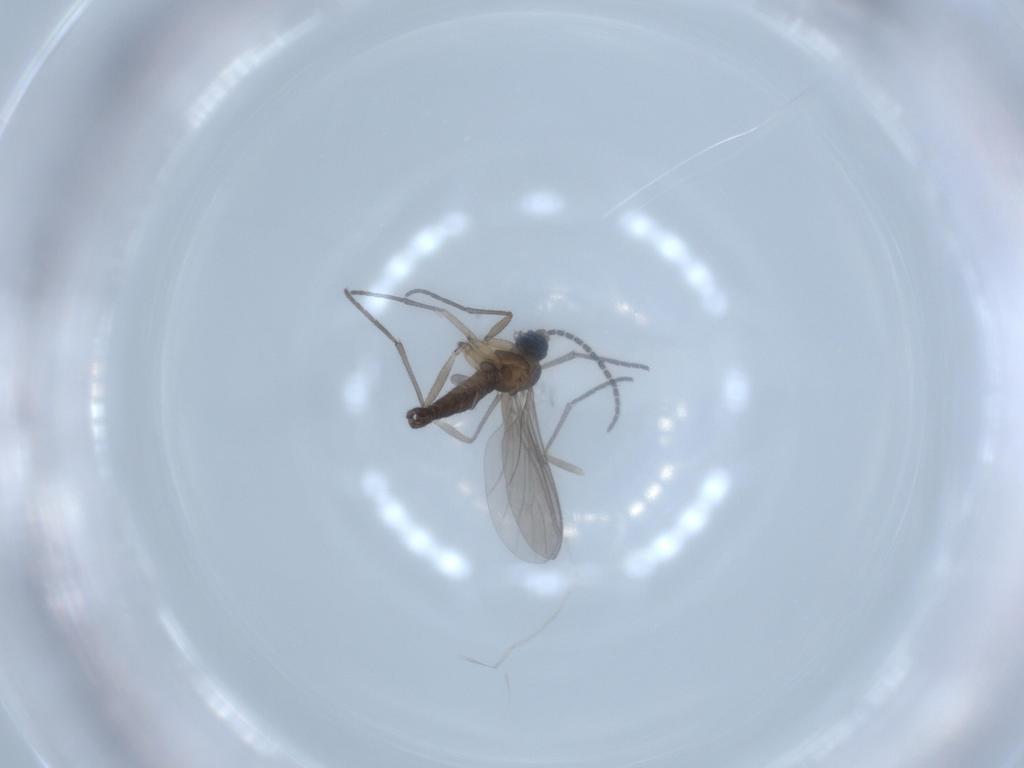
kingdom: Animalia
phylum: Arthropoda
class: Insecta
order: Diptera
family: Sciaridae
